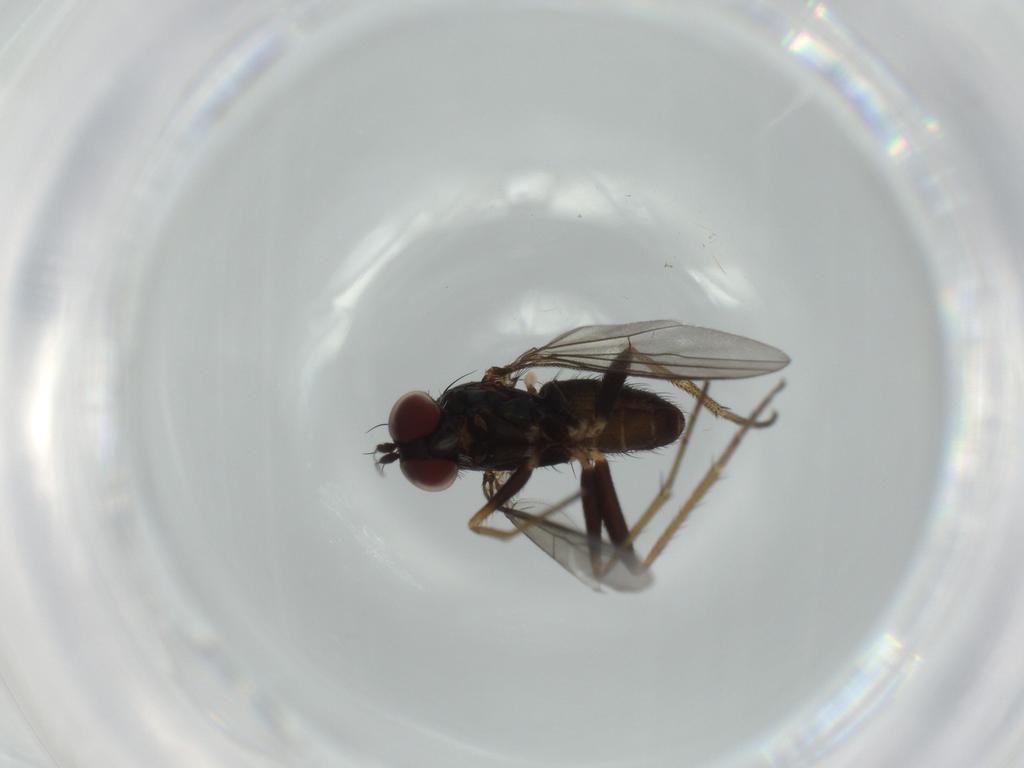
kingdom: Animalia
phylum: Arthropoda
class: Insecta
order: Diptera
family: Dolichopodidae
